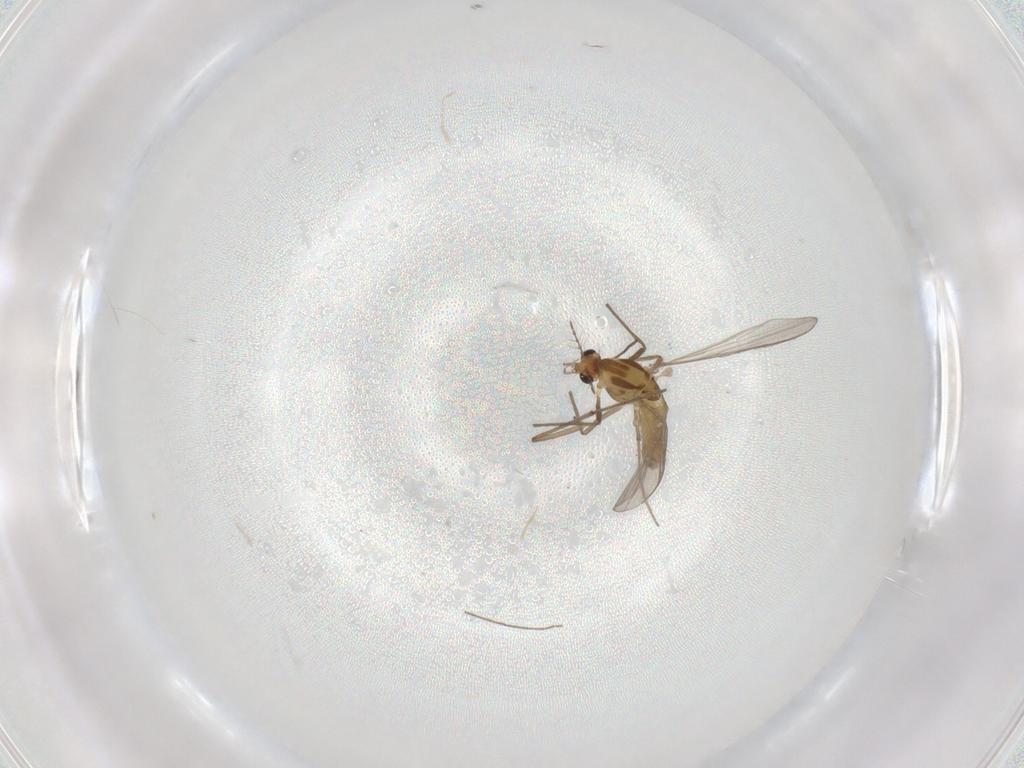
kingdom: Animalia
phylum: Arthropoda
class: Insecta
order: Diptera
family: Chironomidae
